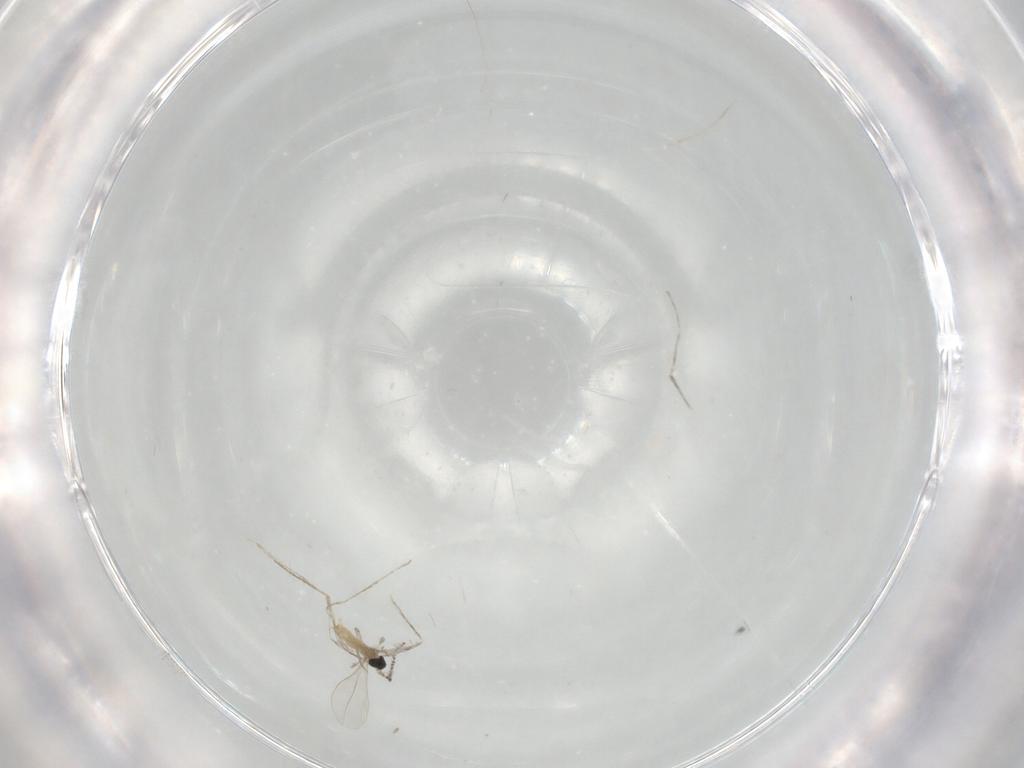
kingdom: Animalia
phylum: Arthropoda
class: Insecta
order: Diptera
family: Cecidomyiidae
